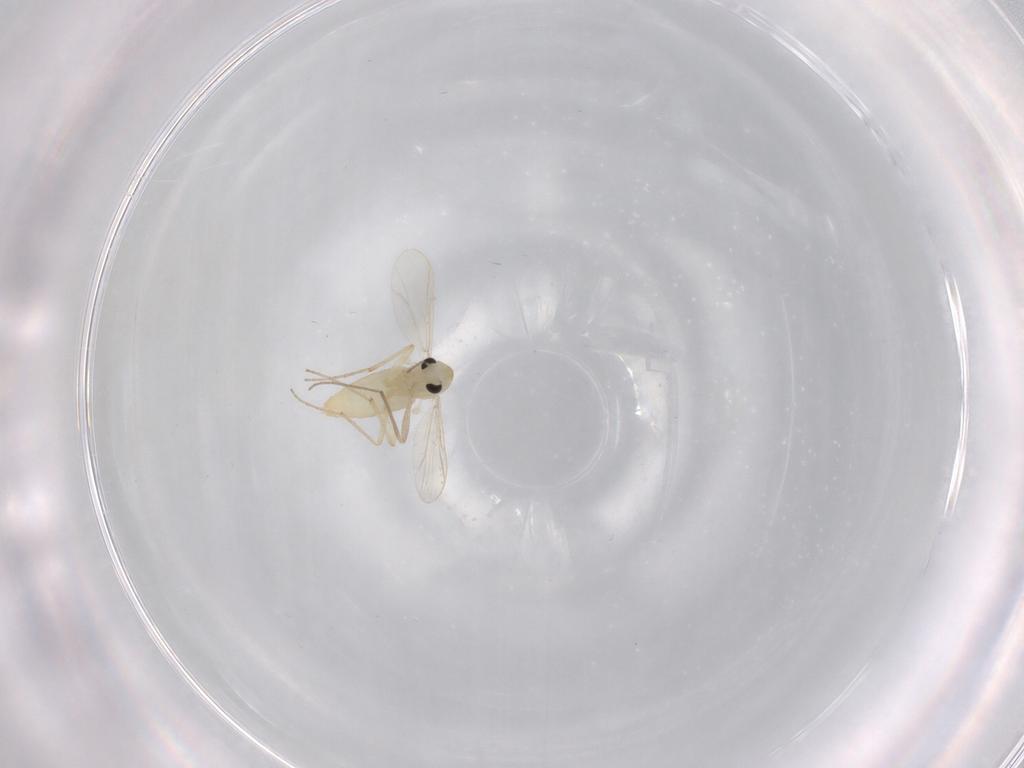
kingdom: Animalia
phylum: Arthropoda
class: Insecta
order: Diptera
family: Chironomidae
